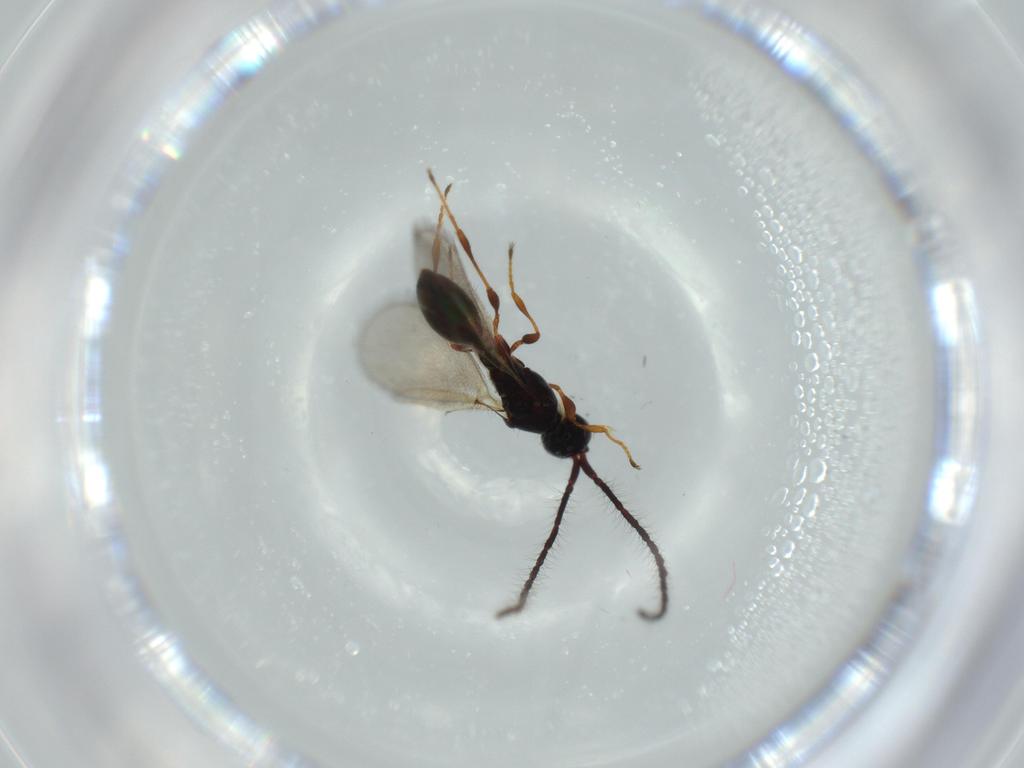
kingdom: Animalia
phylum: Arthropoda
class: Insecta
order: Hymenoptera
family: Diapriidae
